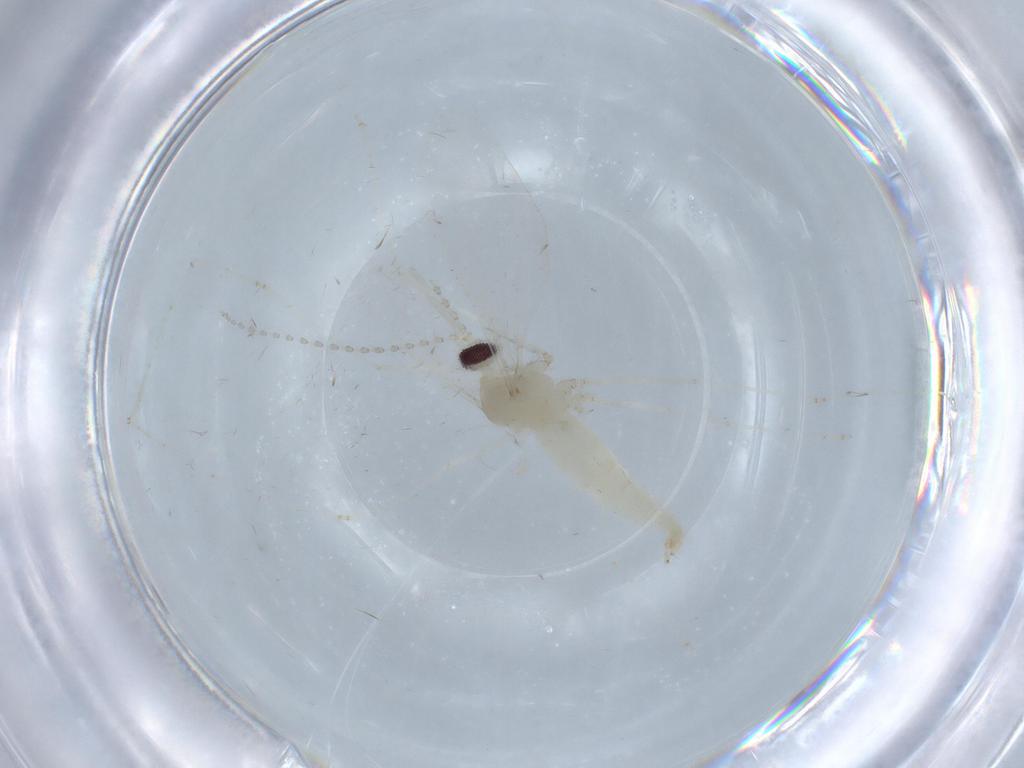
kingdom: Animalia
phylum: Arthropoda
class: Insecta
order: Diptera
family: Cecidomyiidae
